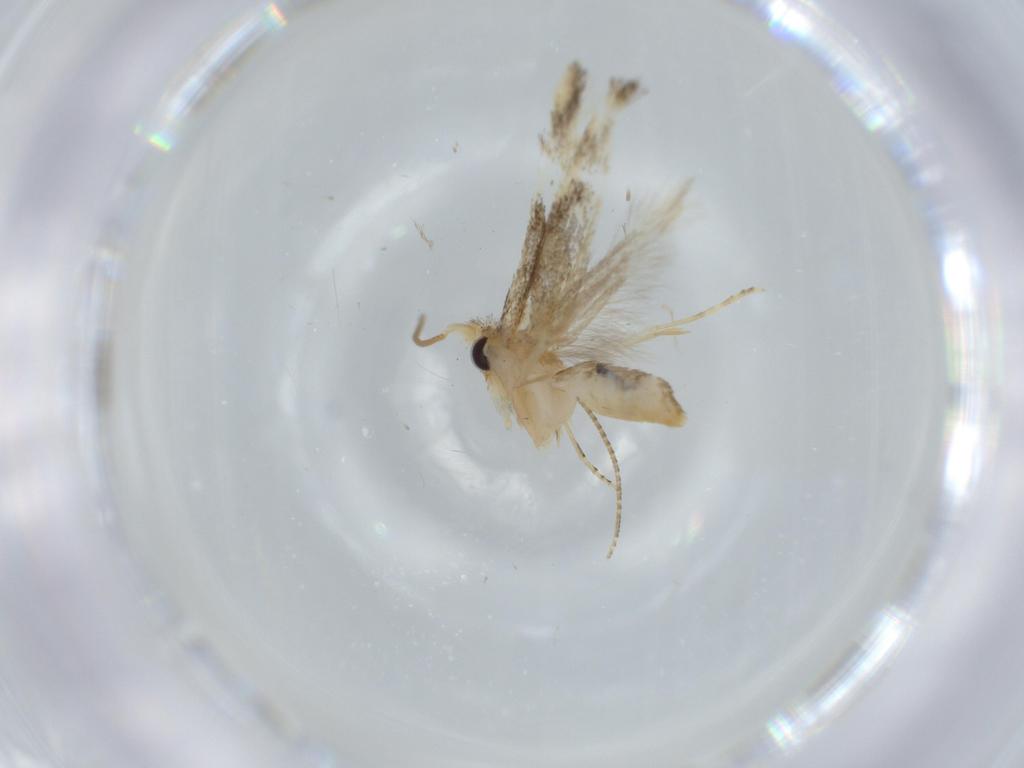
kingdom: Animalia
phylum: Arthropoda
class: Insecta
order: Lepidoptera
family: Bucculatricidae
